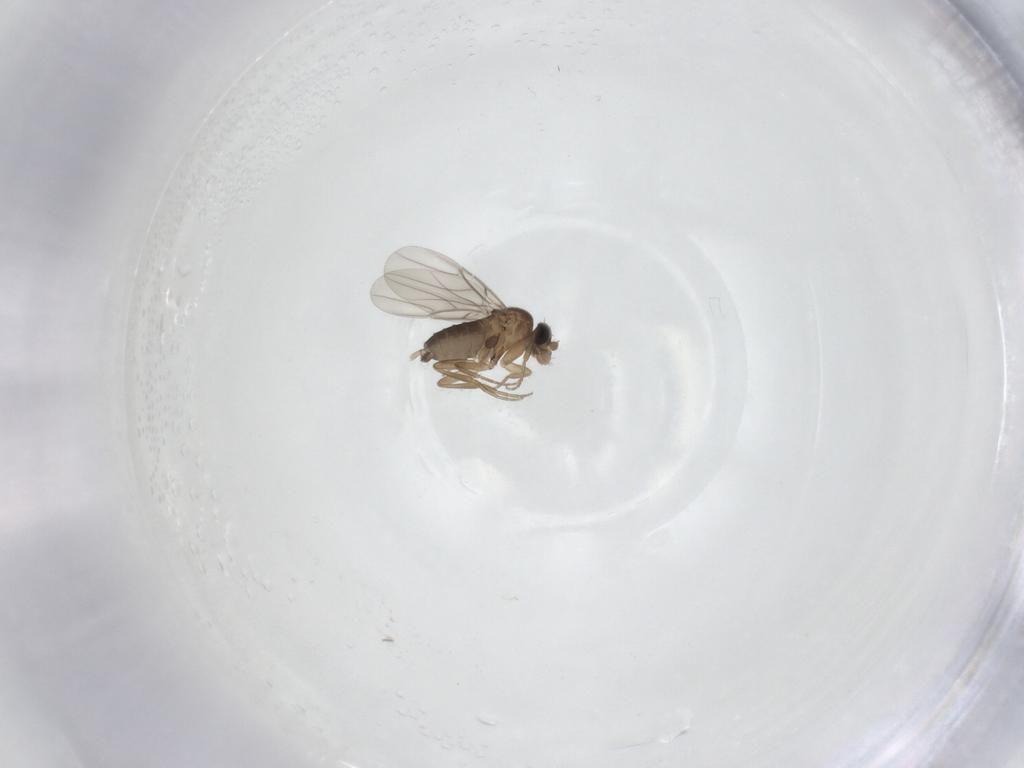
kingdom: Animalia
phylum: Arthropoda
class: Insecta
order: Diptera
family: Phoridae
